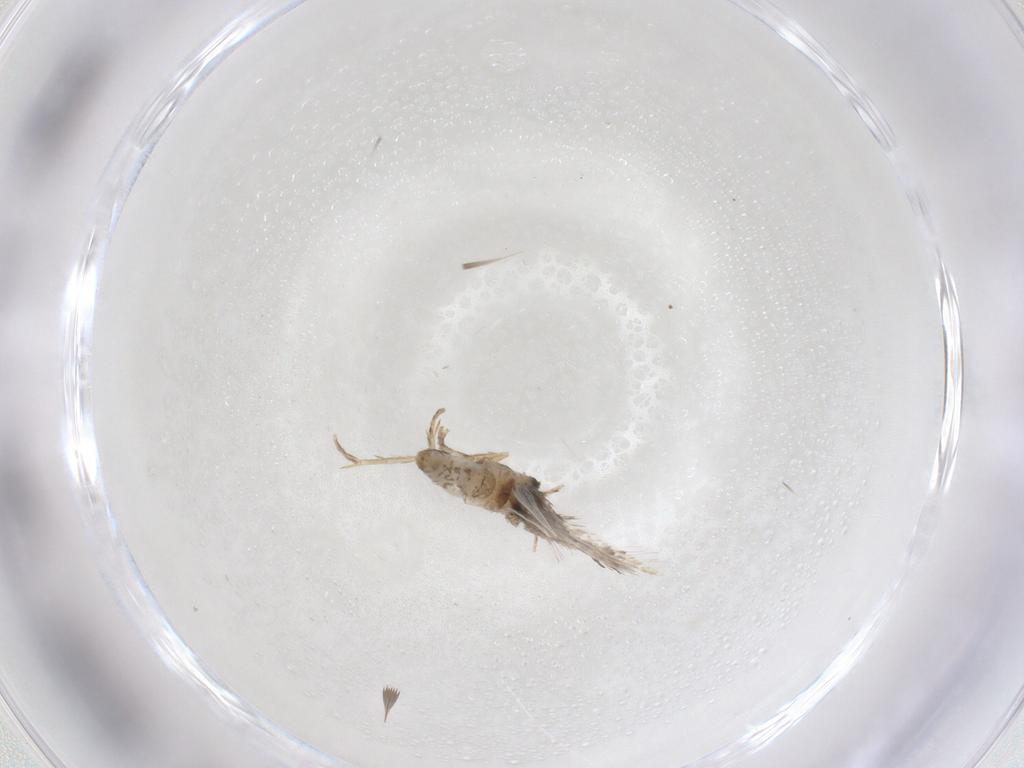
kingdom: Animalia
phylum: Arthropoda
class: Insecta
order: Lepidoptera
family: Nepticulidae
